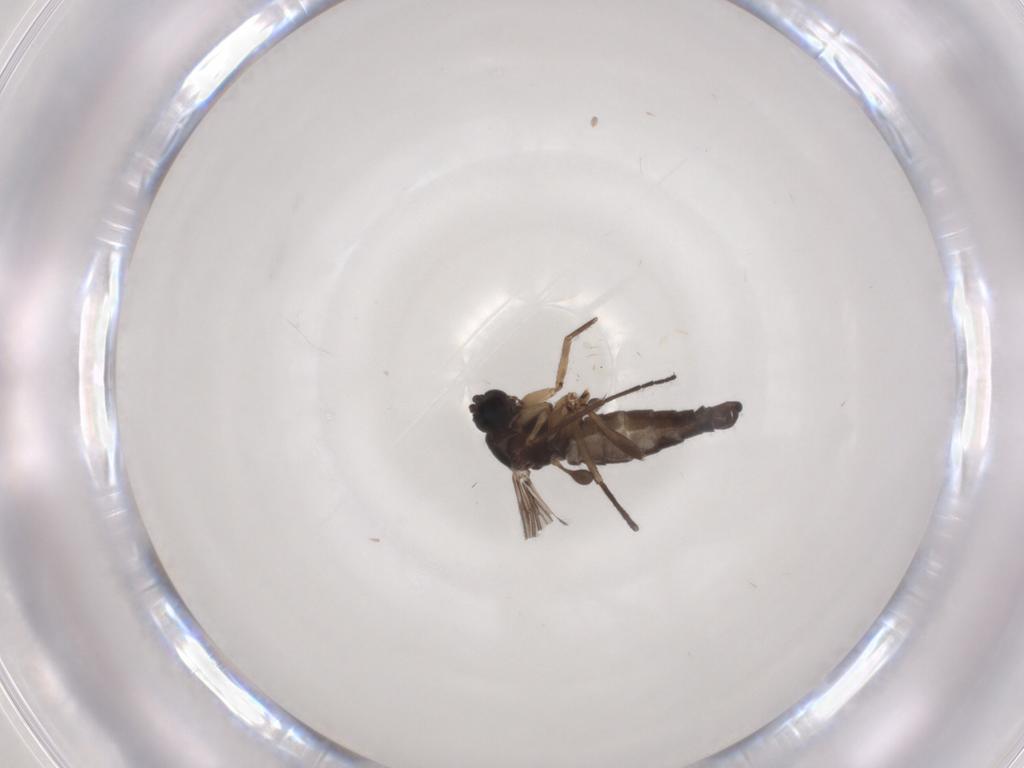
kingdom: Animalia
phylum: Arthropoda
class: Insecta
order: Diptera
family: Sciaridae
